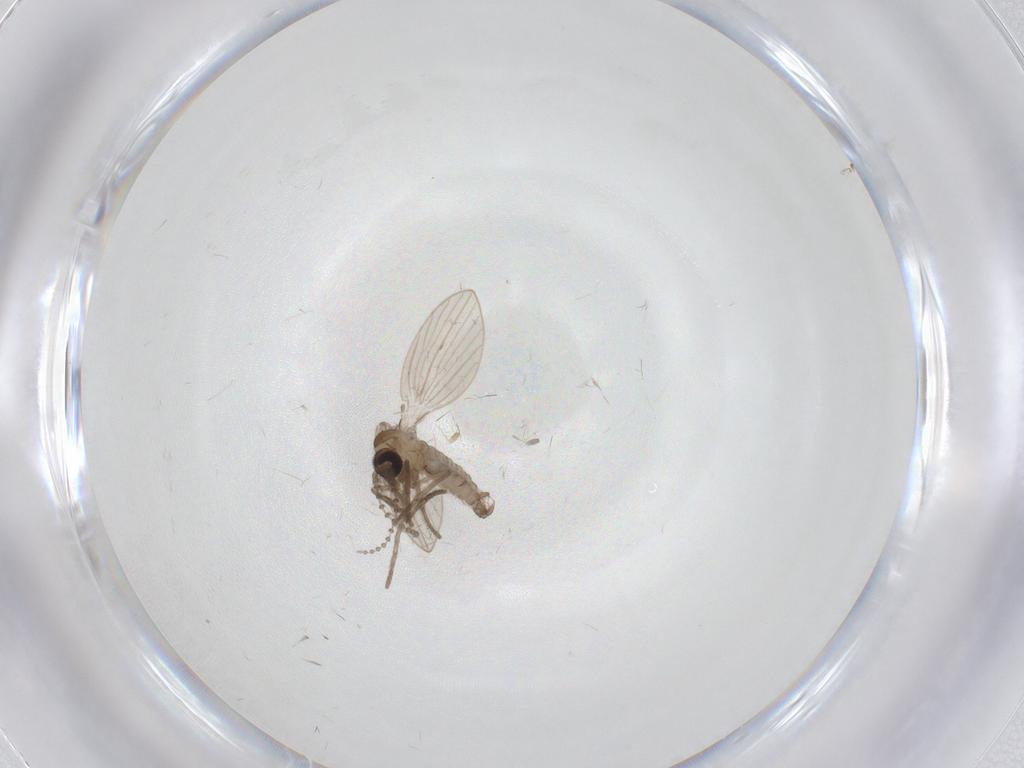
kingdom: Animalia
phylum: Arthropoda
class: Insecta
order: Diptera
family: Psychodidae
